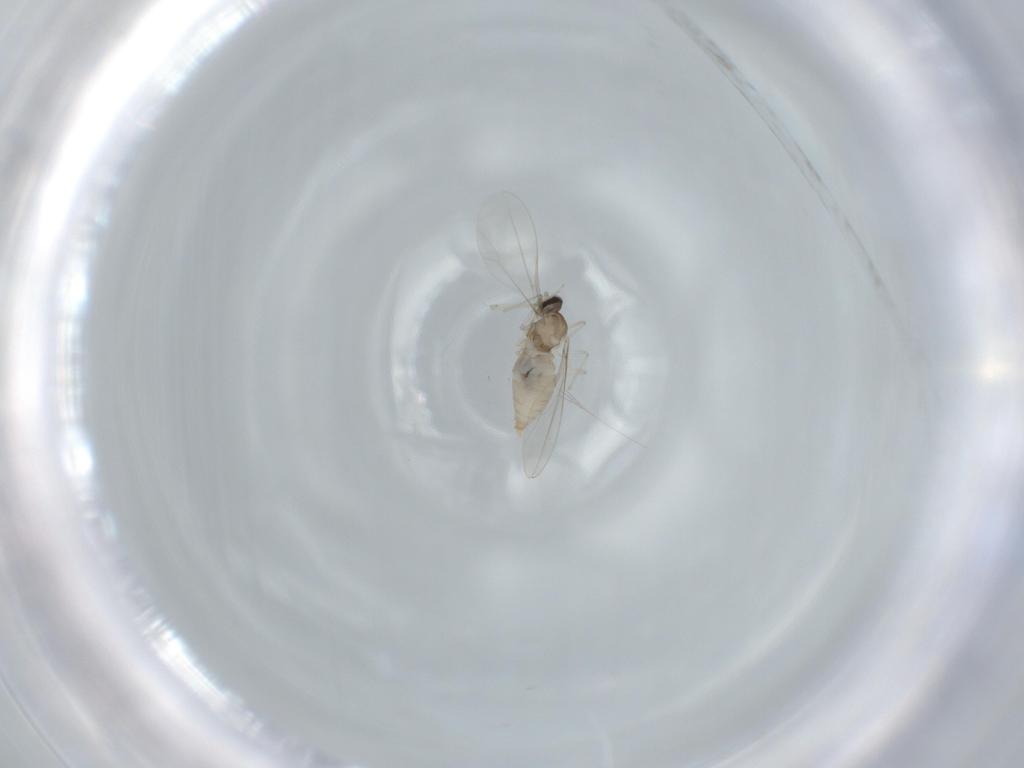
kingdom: Animalia
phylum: Arthropoda
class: Insecta
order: Diptera
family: Cecidomyiidae
